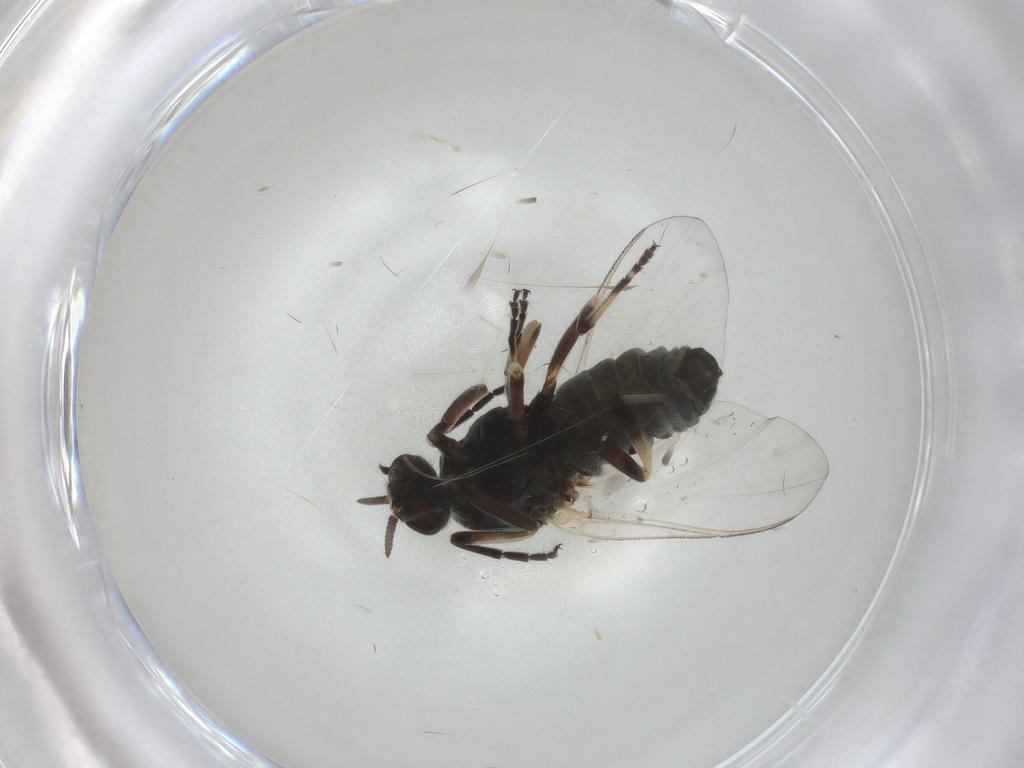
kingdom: Animalia
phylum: Arthropoda
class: Insecta
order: Diptera
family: Simuliidae
